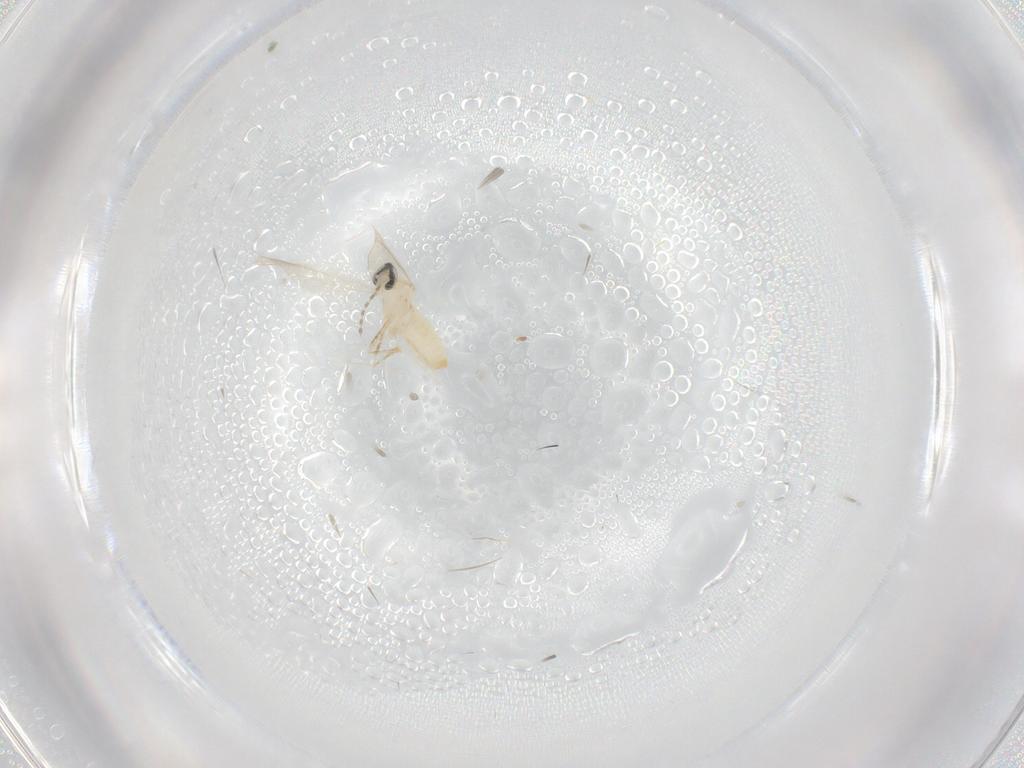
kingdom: Animalia
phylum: Arthropoda
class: Insecta
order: Diptera
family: Cecidomyiidae
